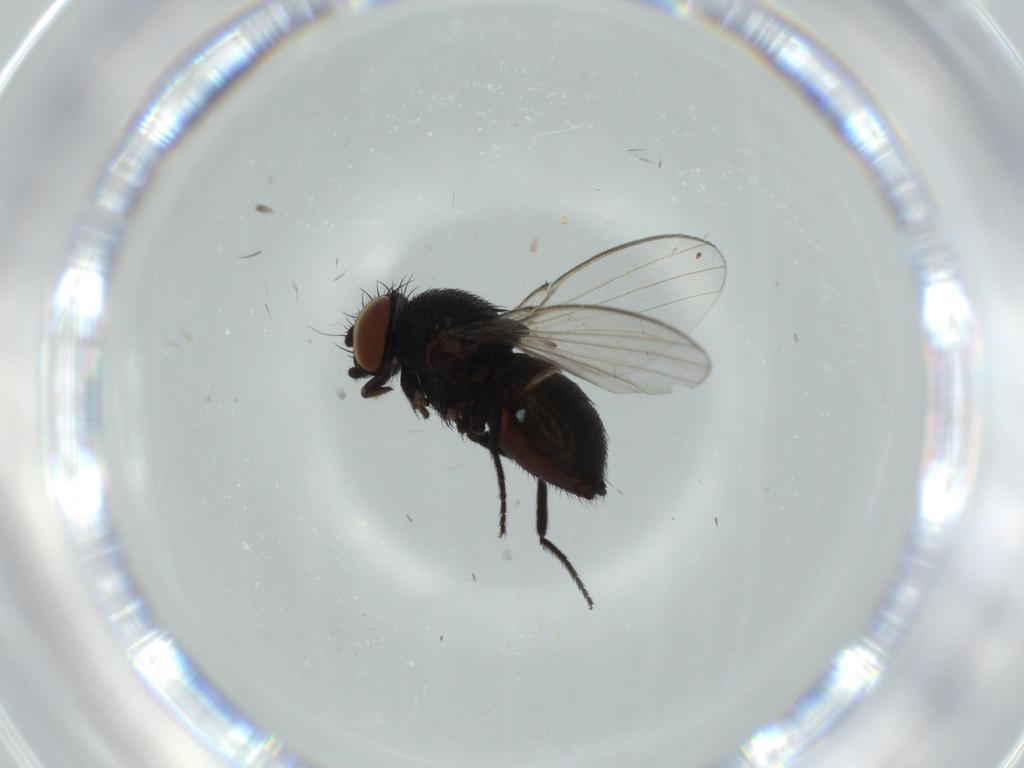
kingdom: Animalia
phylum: Arthropoda
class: Insecta
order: Diptera
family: Milichiidae
